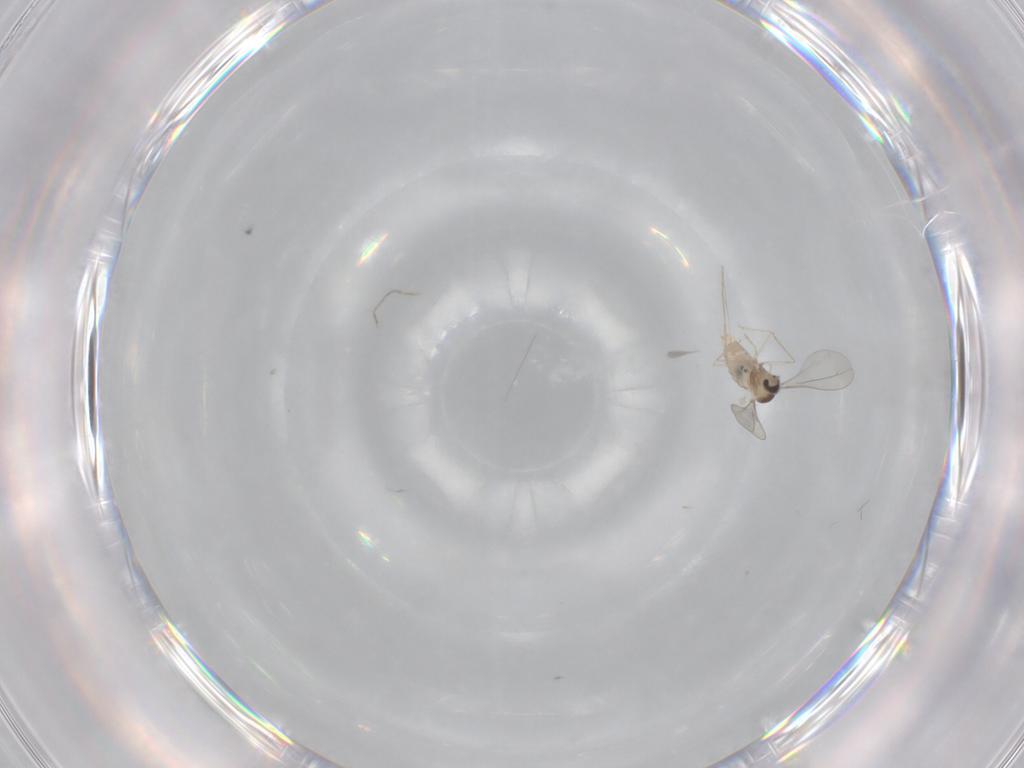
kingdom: Animalia
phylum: Arthropoda
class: Insecta
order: Diptera
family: Cecidomyiidae
